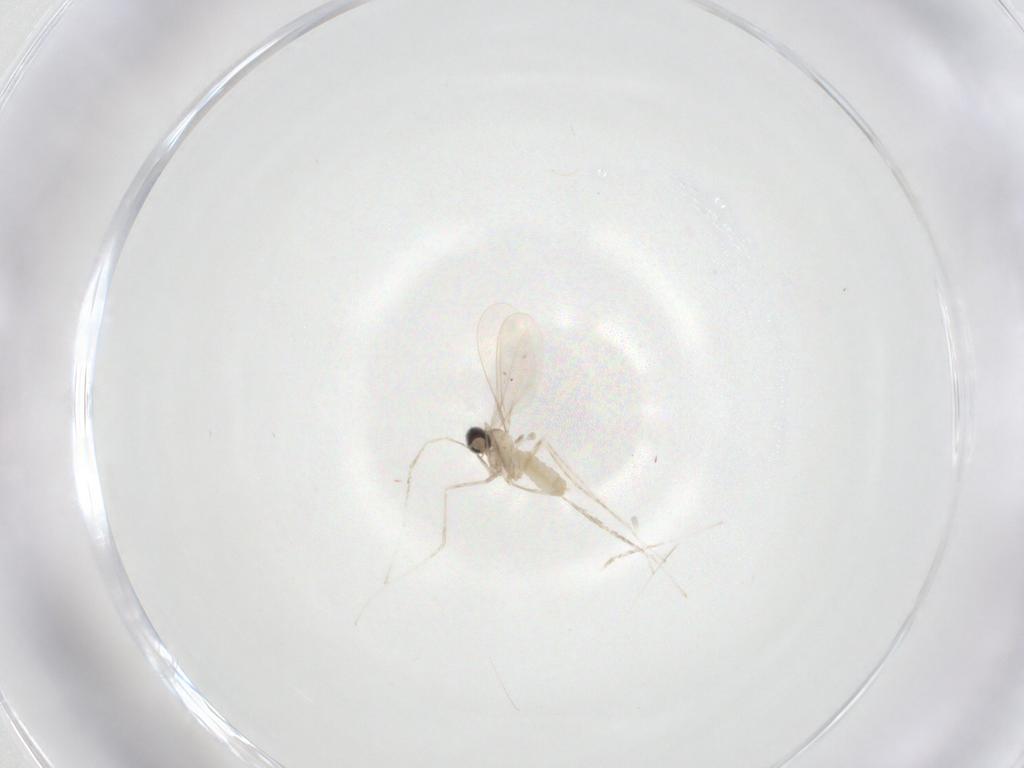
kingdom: Animalia
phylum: Arthropoda
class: Insecta
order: Diptera
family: Cecidomyiidae
